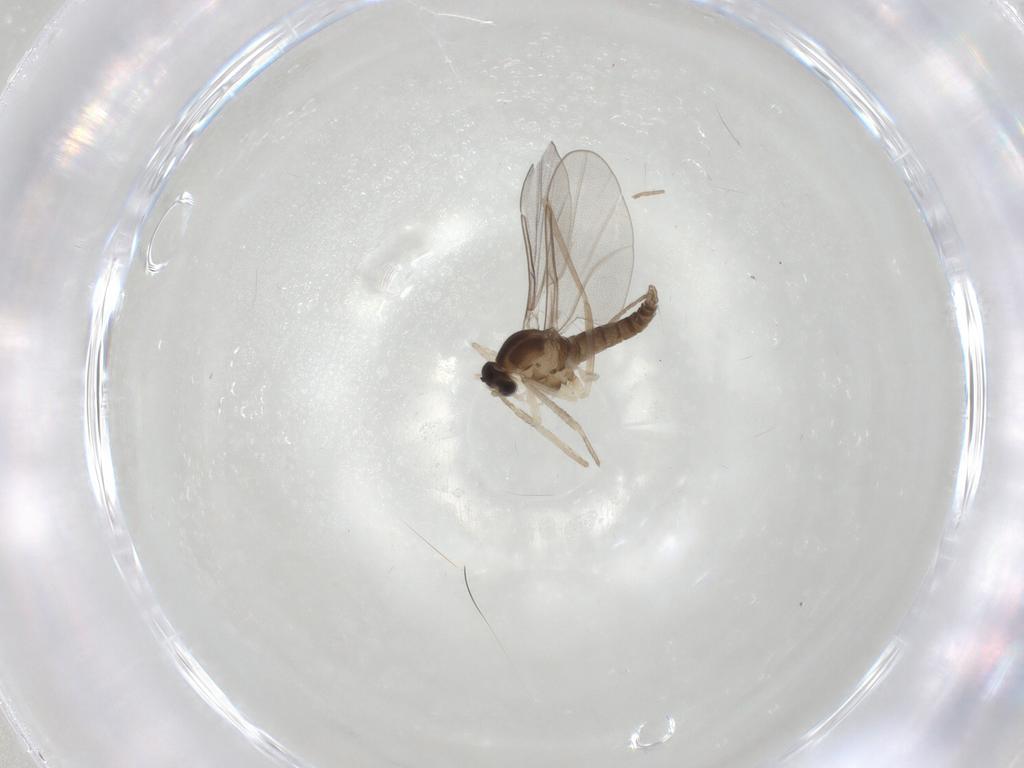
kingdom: Animalia
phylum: Arthropoda
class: Insecta
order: Diptera
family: Cecidomyiidae
